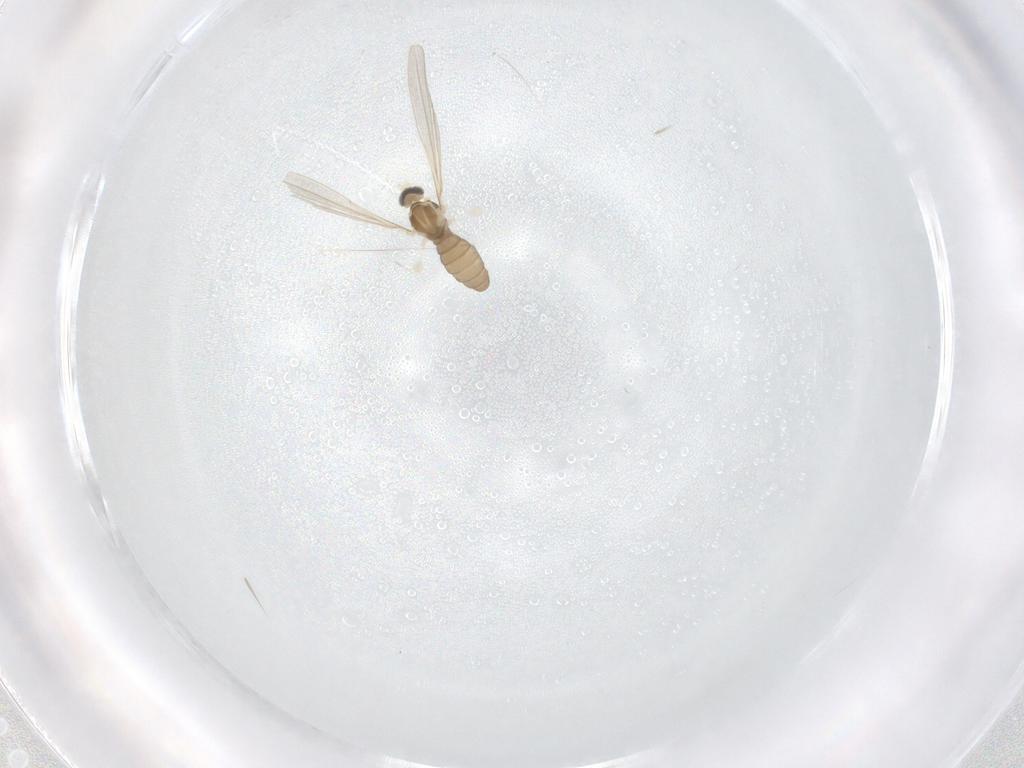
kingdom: Animalia
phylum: Arthropoda
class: Insecta
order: Diptera
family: Cecidomyiidae
